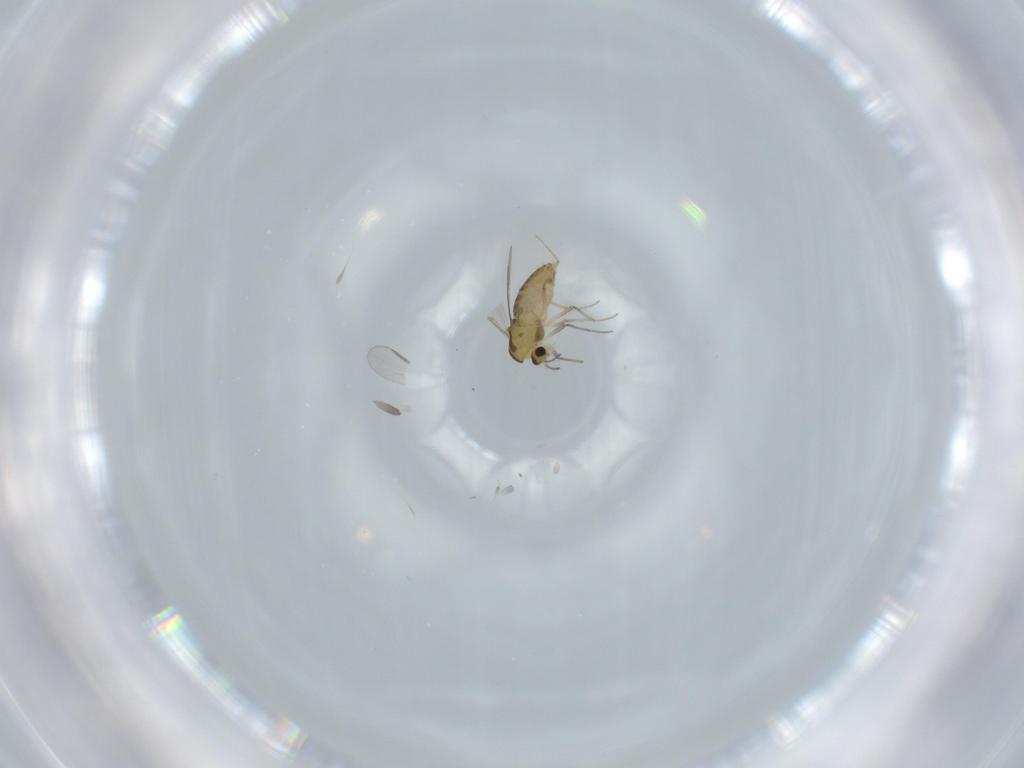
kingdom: Animalia
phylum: Arthropoda
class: Insecta
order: Diptera
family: Chironomidae
